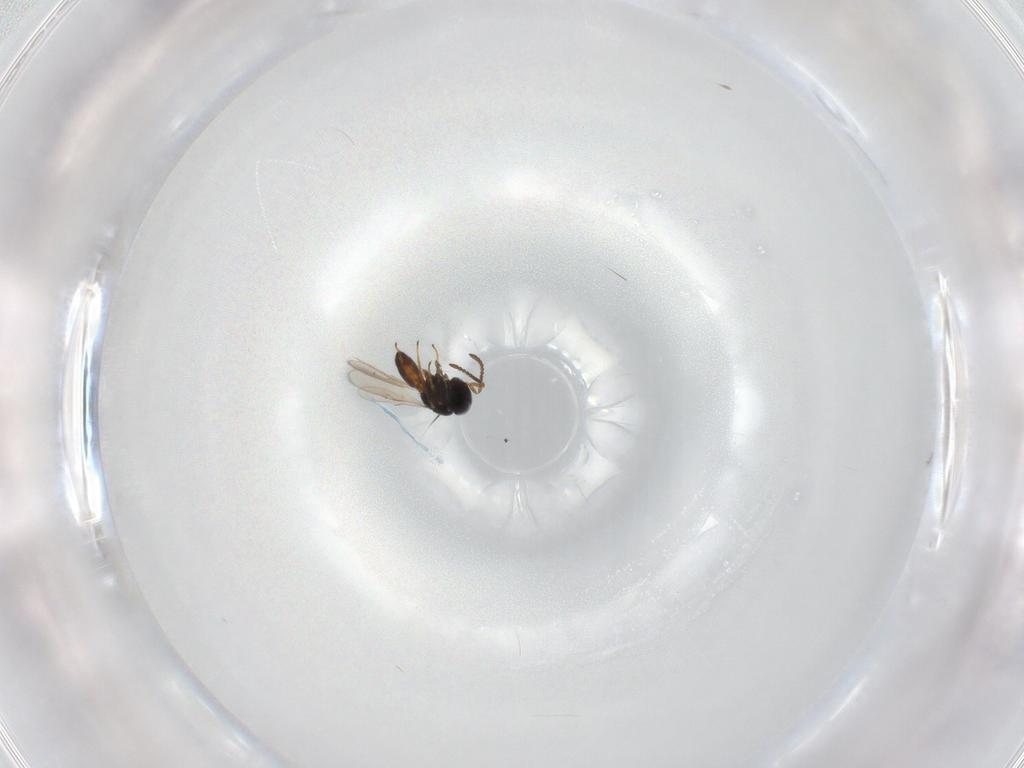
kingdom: Animalia
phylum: Arthropoda
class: Insecta
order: Hymenoptera
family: Scelionidae
